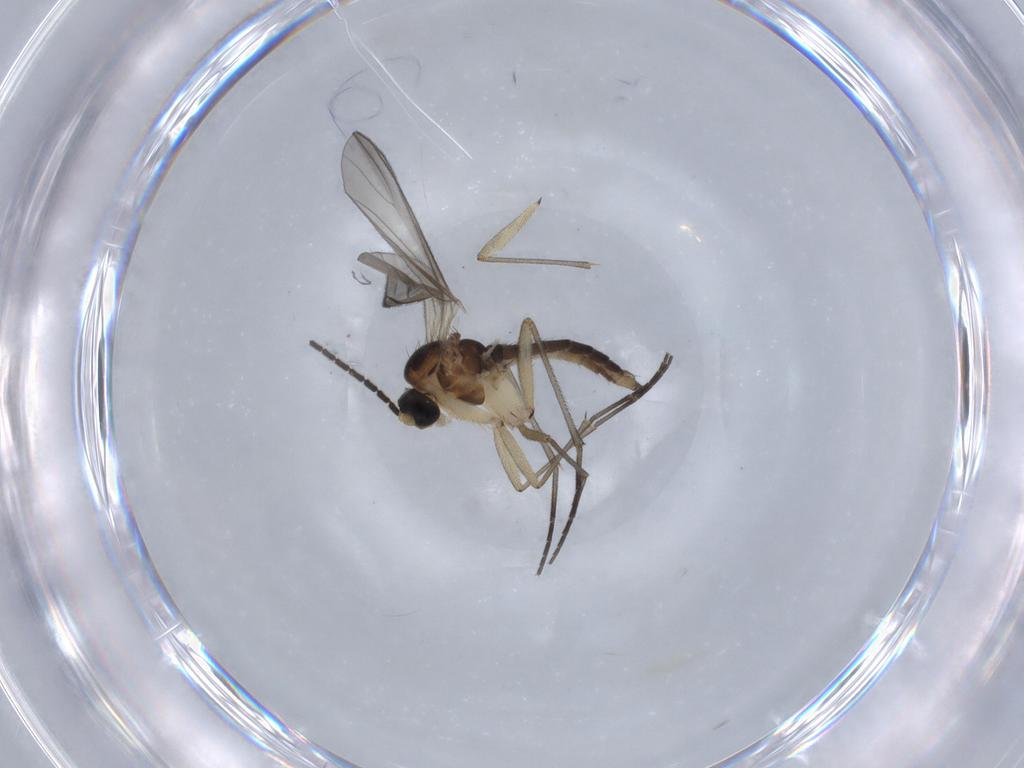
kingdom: Animalia
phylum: Arthropoda
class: Insecta
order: Diptera
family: Sciaridae
